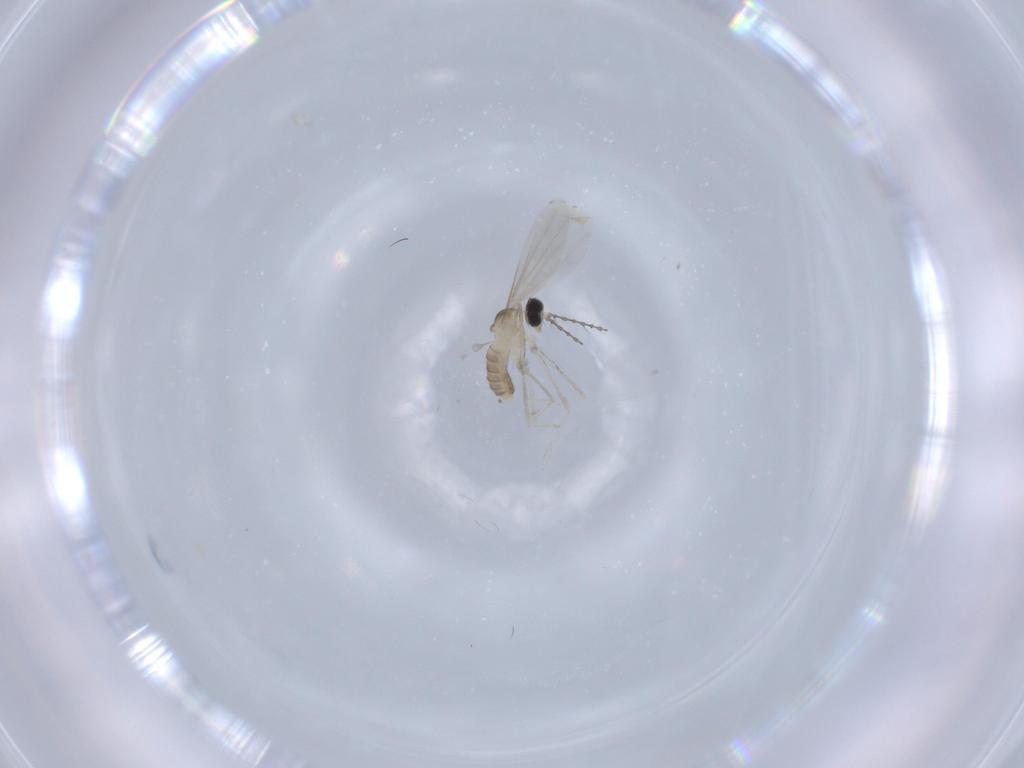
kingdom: Animalia
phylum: Arthropoda
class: Insecta
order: Diptera
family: Cecidomyiidae
